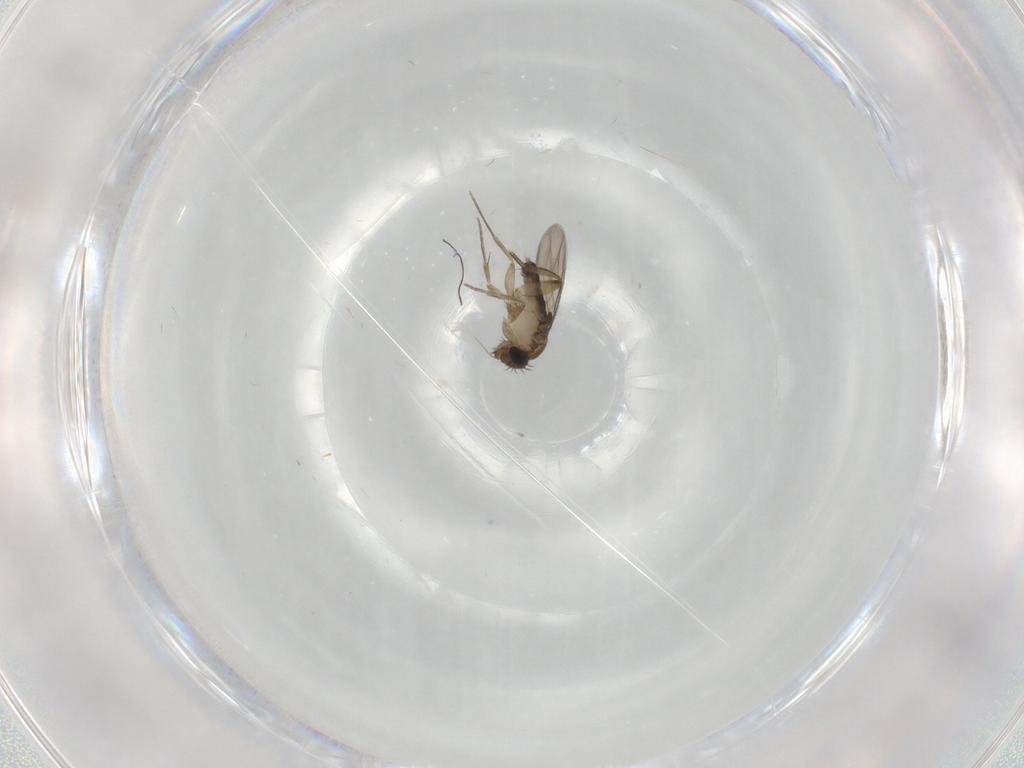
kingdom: Animalia
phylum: Arthropoda
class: Insecta
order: Diptera
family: Phoridae
